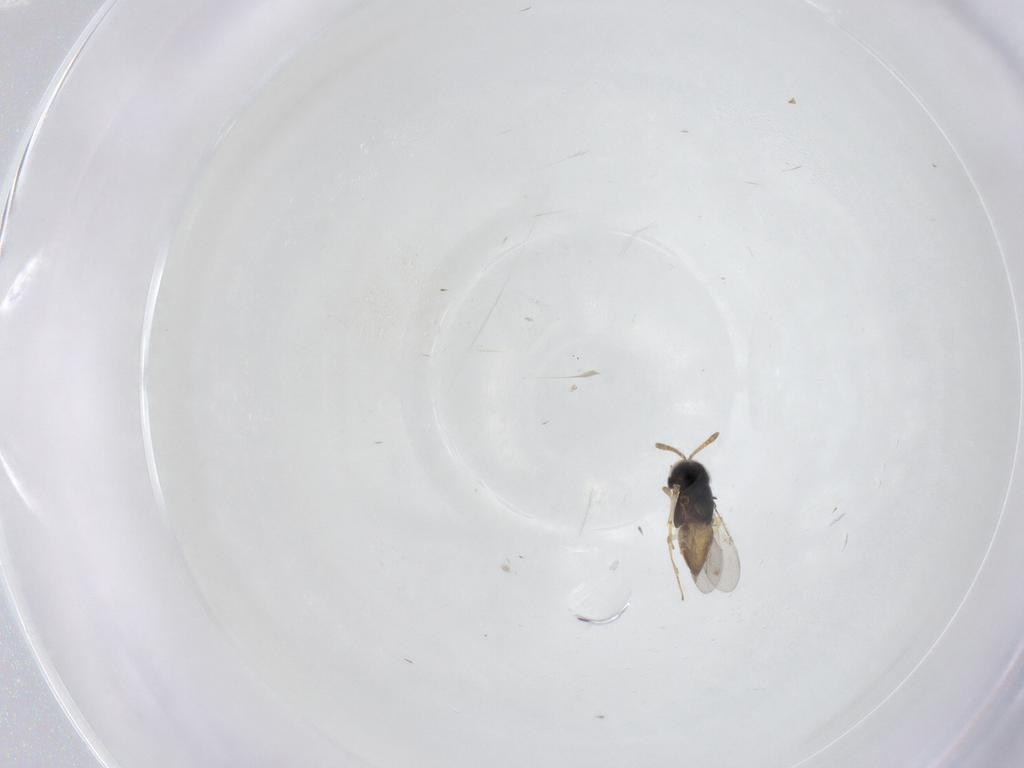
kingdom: Animalia
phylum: Arthropoda
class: Insecta
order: Diptera
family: Psychodidae
